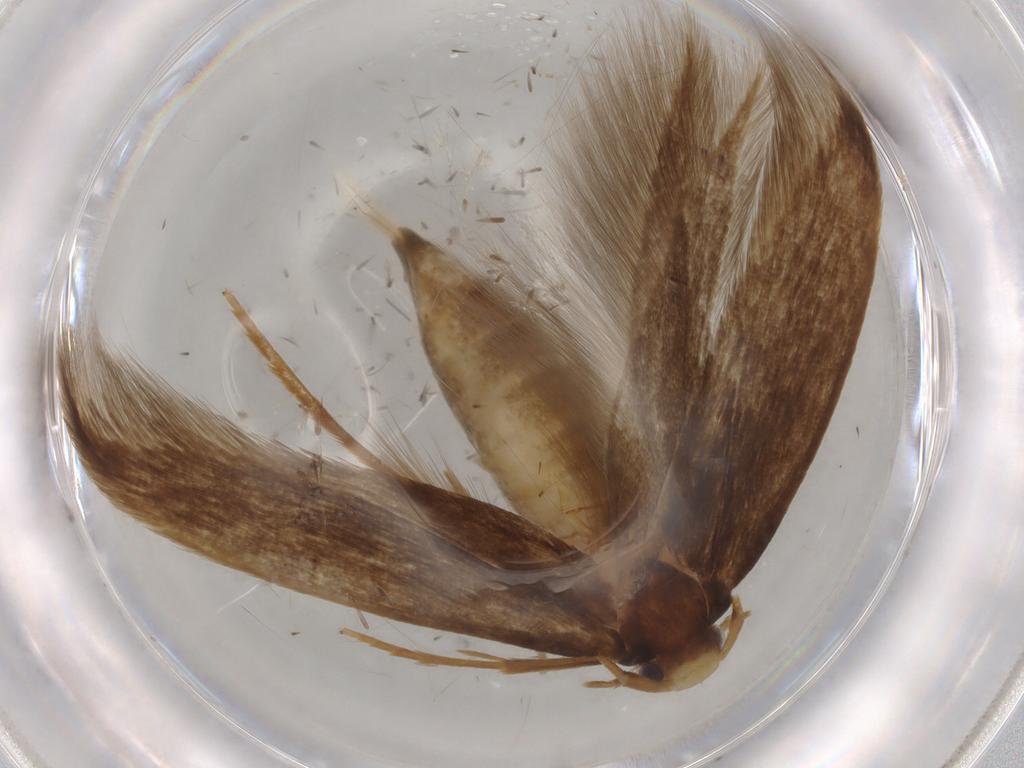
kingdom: Animalia
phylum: Arthropoda
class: Insecta
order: Lepidoptera
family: Tineidae
